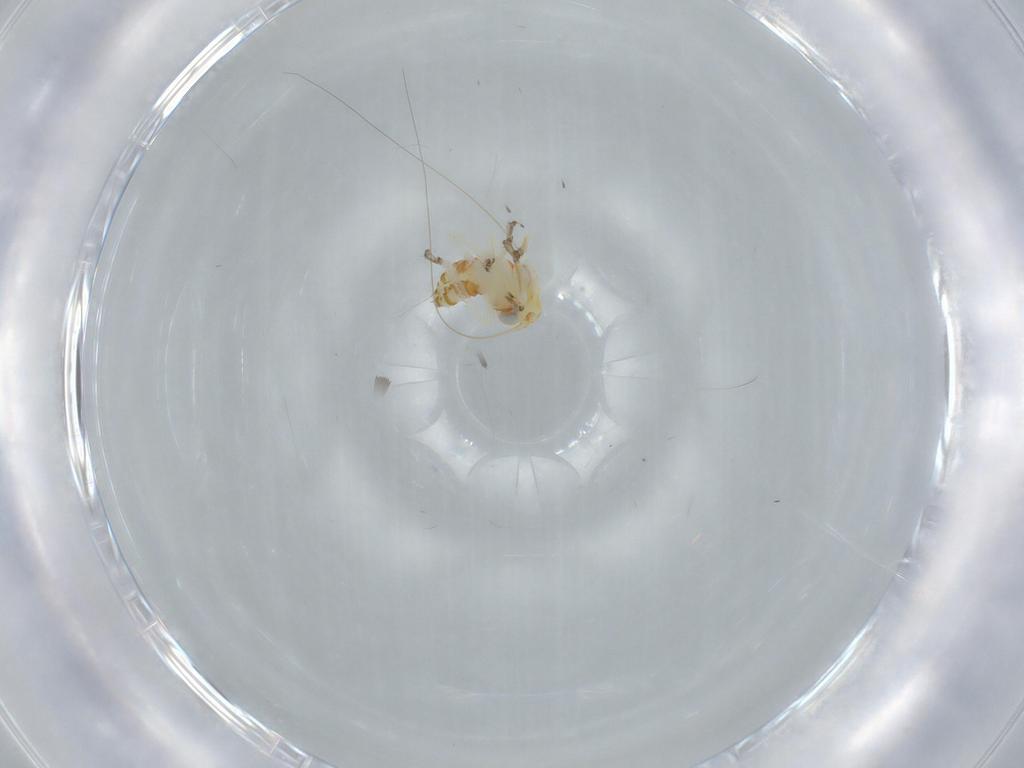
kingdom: Animalia
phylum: Arthropoda
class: Insecta
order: Hemiptera
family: Cicadellidae
